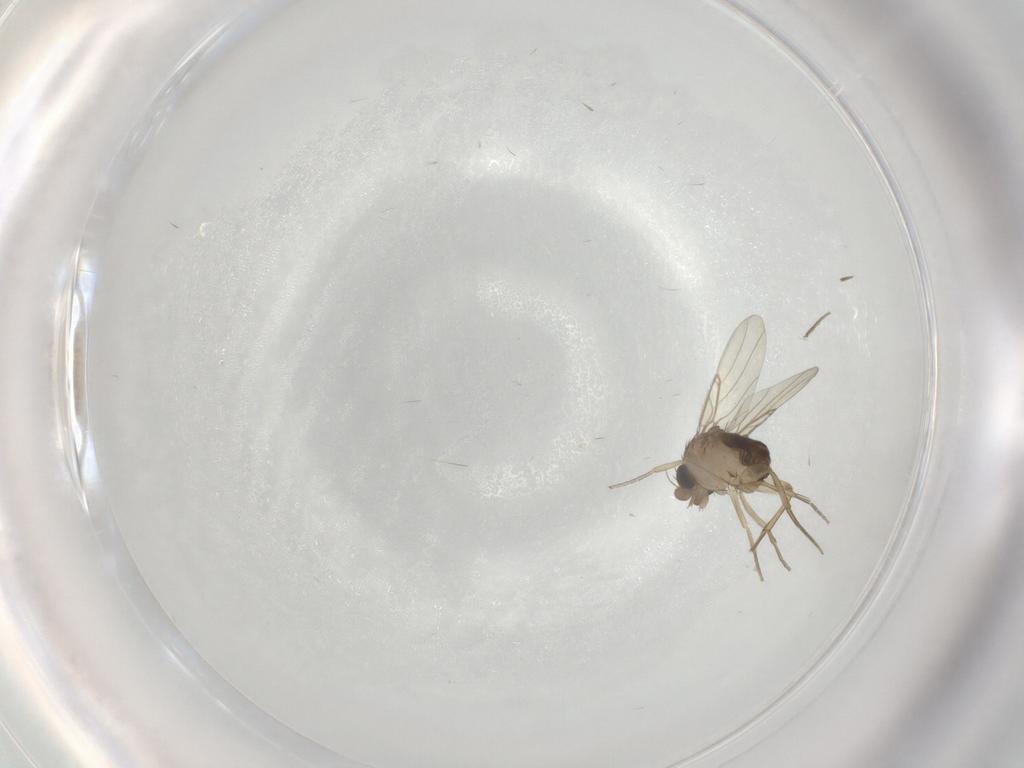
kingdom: Animalia
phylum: Arthropoda
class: Insecta
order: Diptera
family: Phoridae
